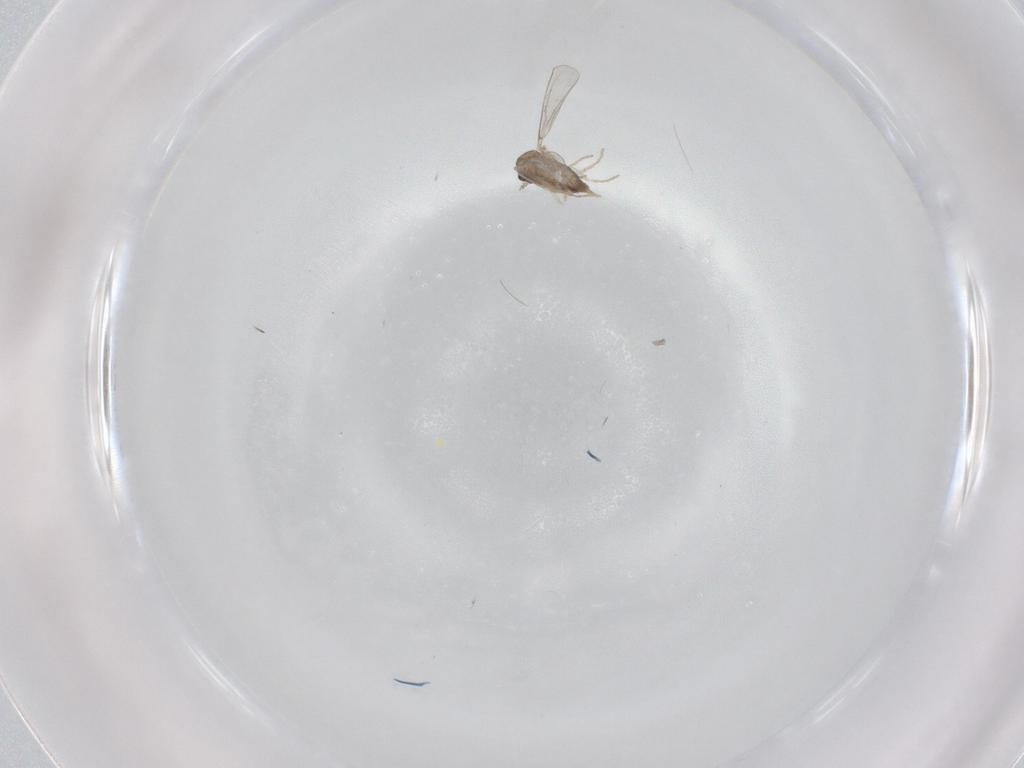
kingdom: Animalia
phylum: Arthropoda
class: Insecta
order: Diptera
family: Cecidomyiidae
